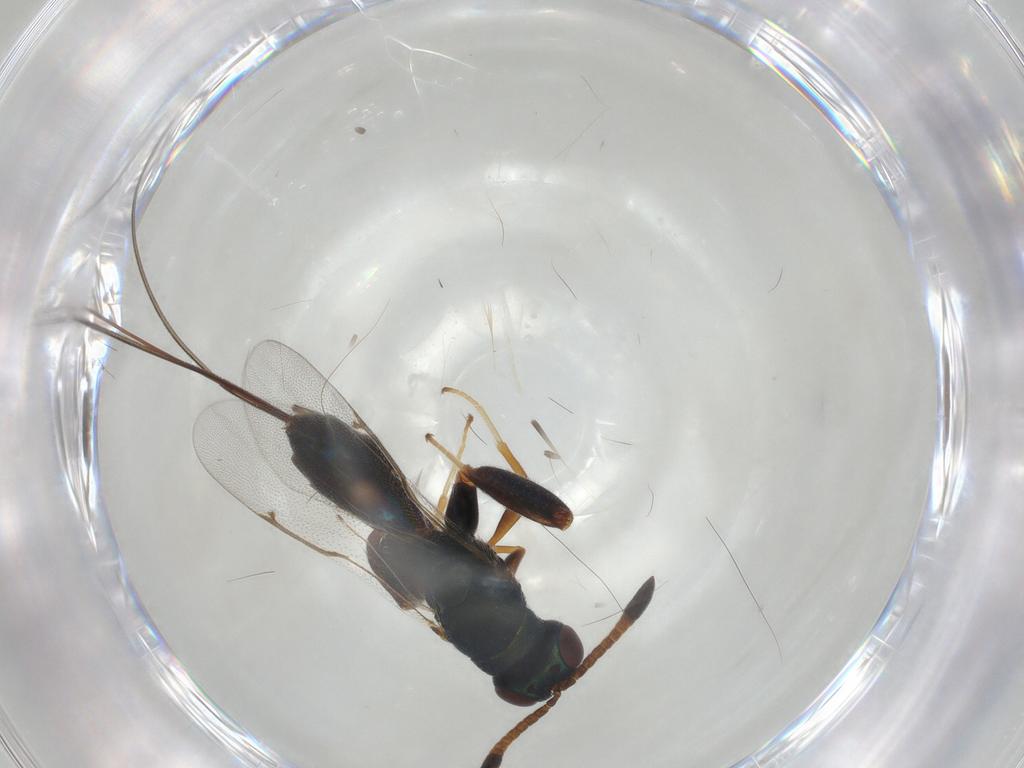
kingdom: Animalia
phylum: Arthropoda
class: Insecta
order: Hymenoptera
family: Torymidae
